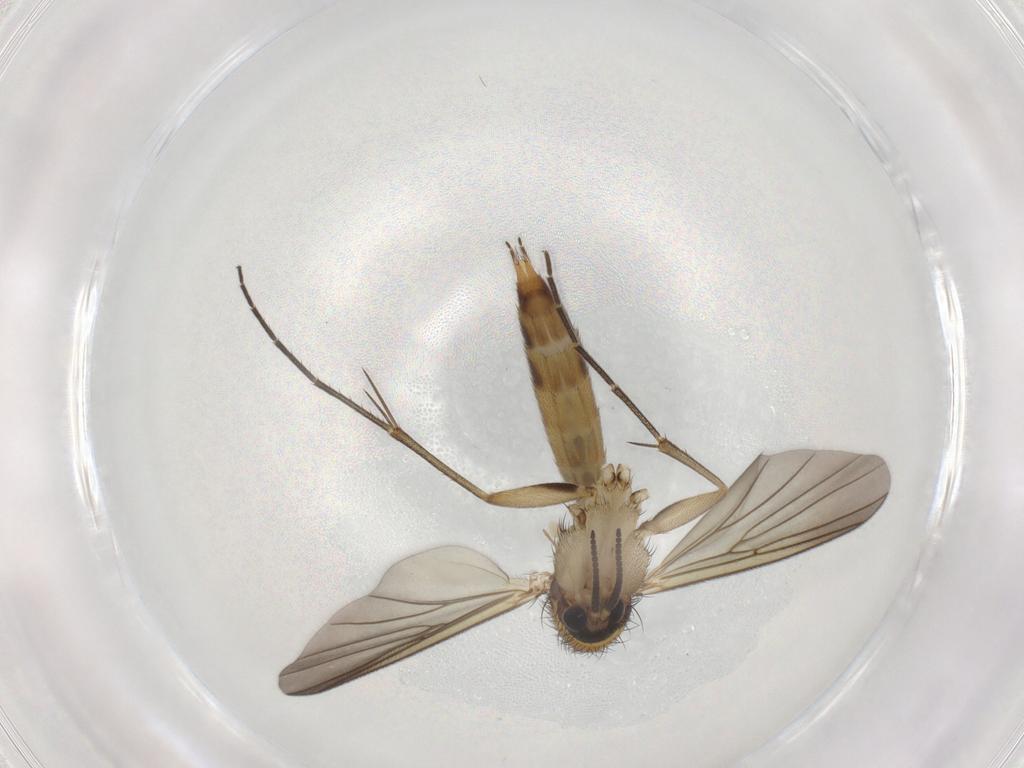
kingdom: Animalia
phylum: Arthropoda
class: Insecta
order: Diptera
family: Mycetophilidae
